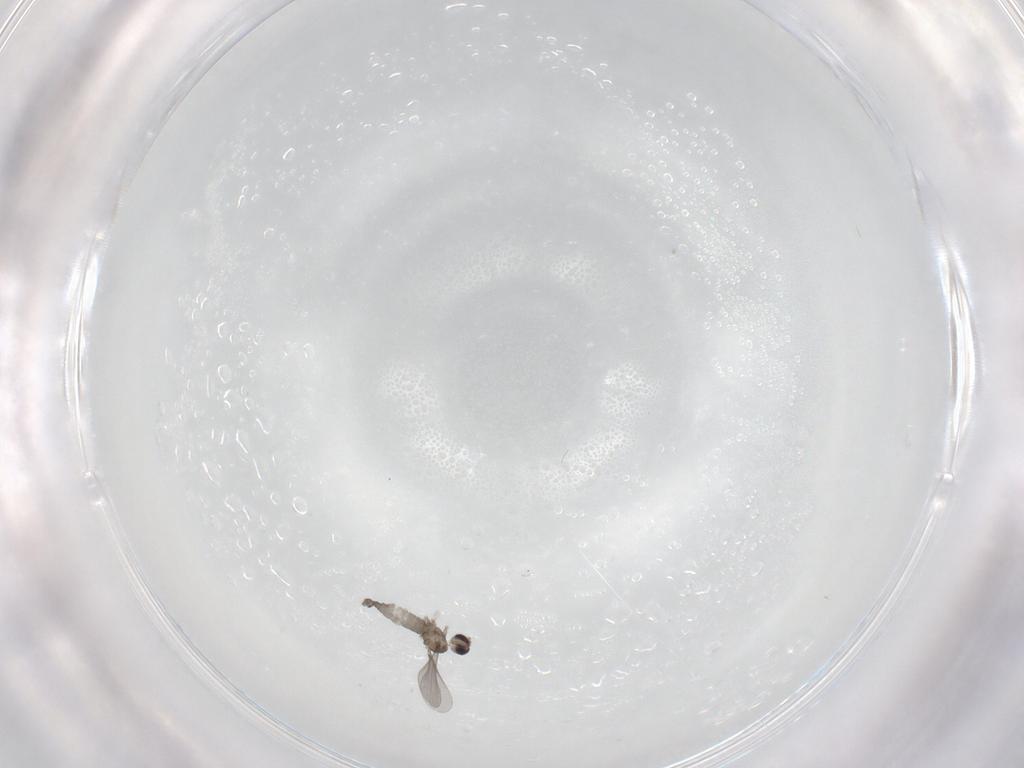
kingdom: Animalia
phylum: Arthropoda
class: Insecta
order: Diptera
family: Cecidomyiidae
